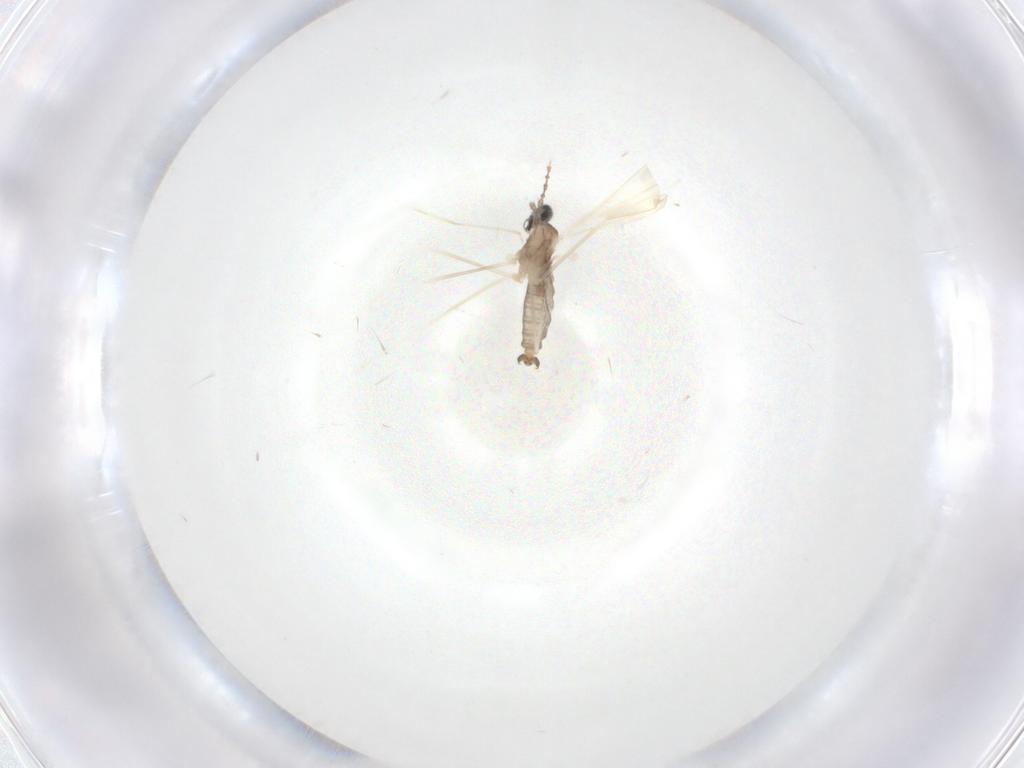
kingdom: Animalia
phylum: Arthropoda
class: Insecta
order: Diptera
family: Cecidomyiidae
